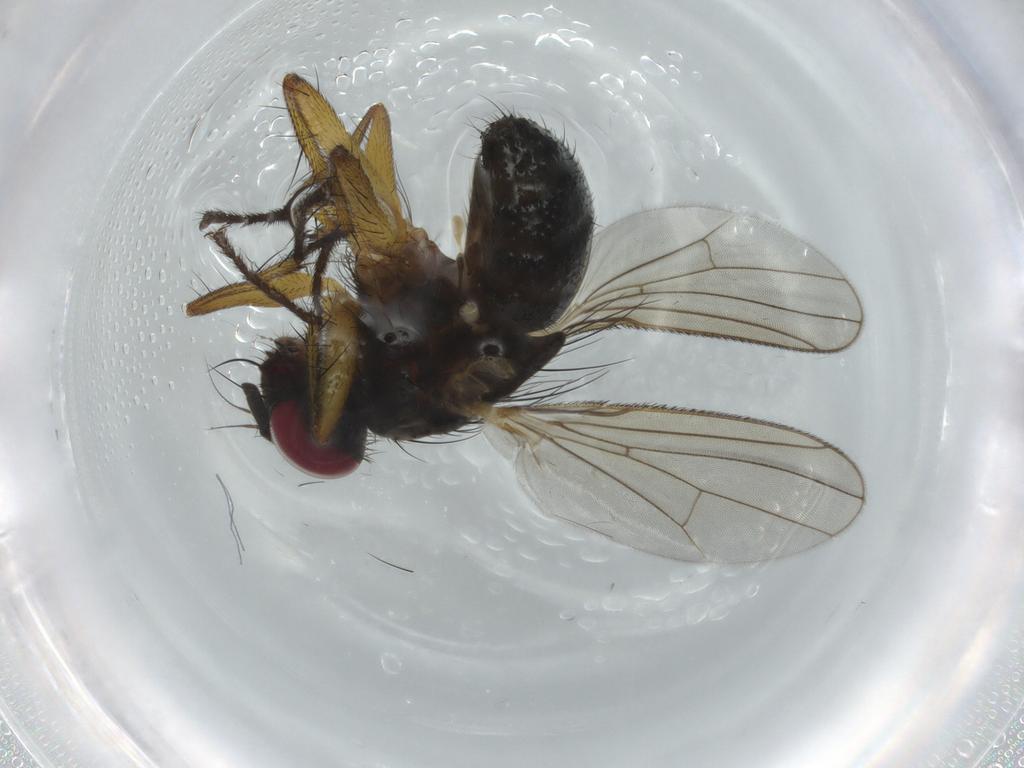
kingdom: Animalia
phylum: Arthropoda
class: Insecta
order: Diptera
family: Muscidae
